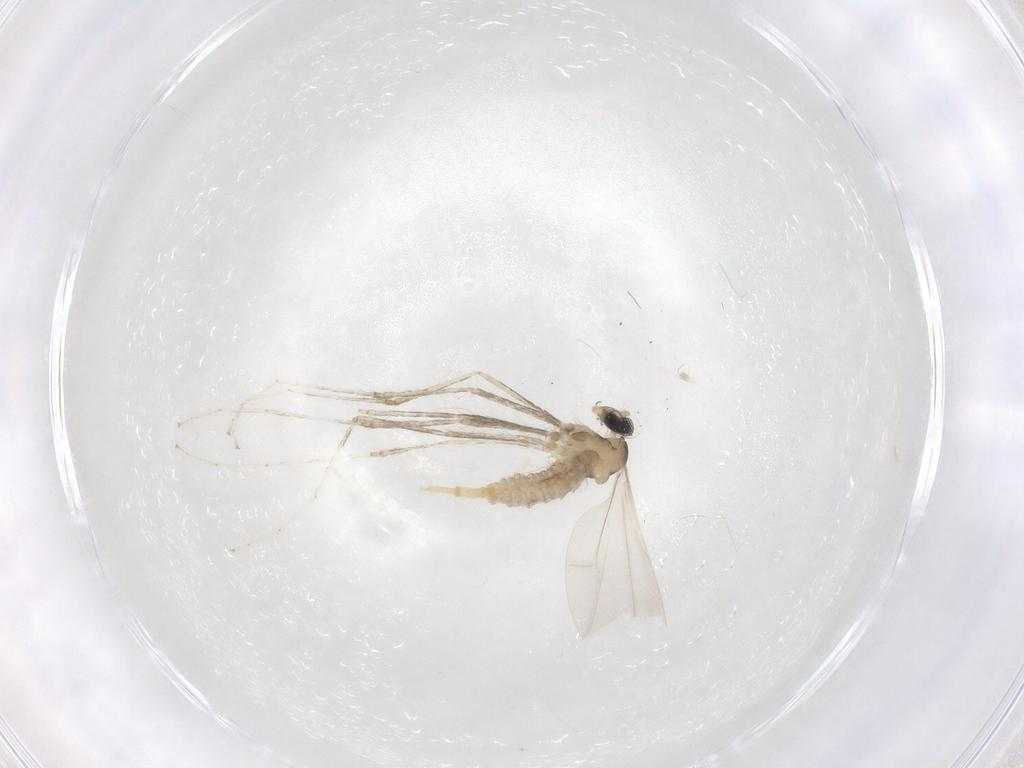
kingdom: Animalia
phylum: Arthropoda
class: Insecta
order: Diptera
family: Cecidomyiidae
